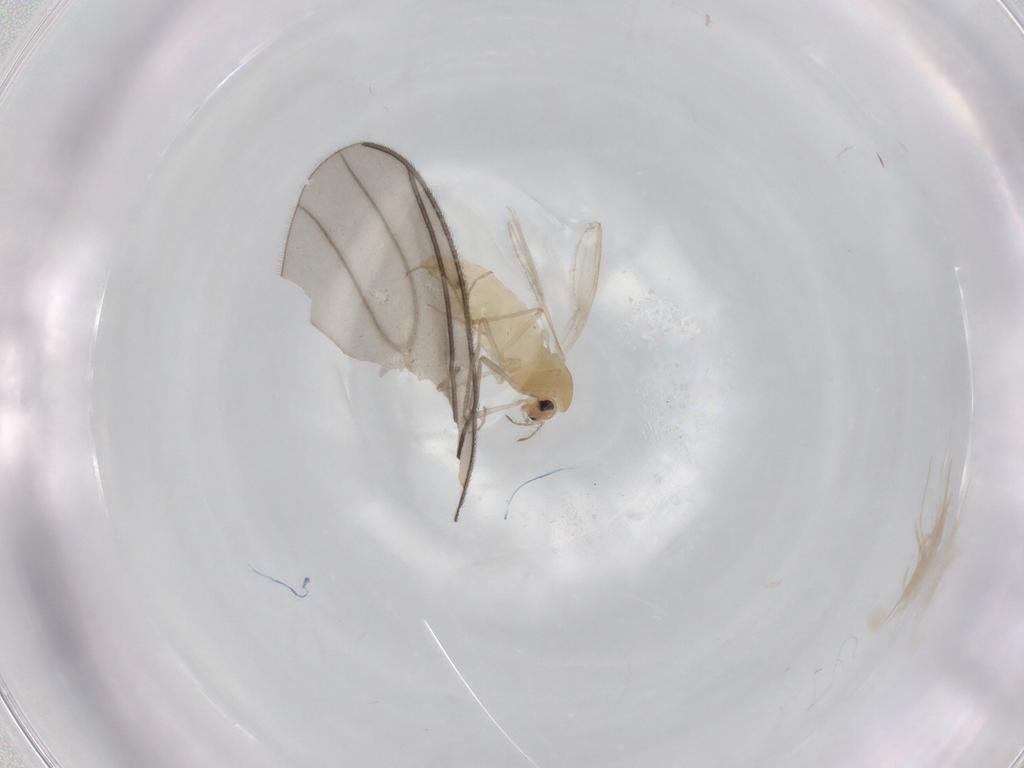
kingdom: Animalia
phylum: Arthropoda
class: Insecta
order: Diptera
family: Chironomidae
